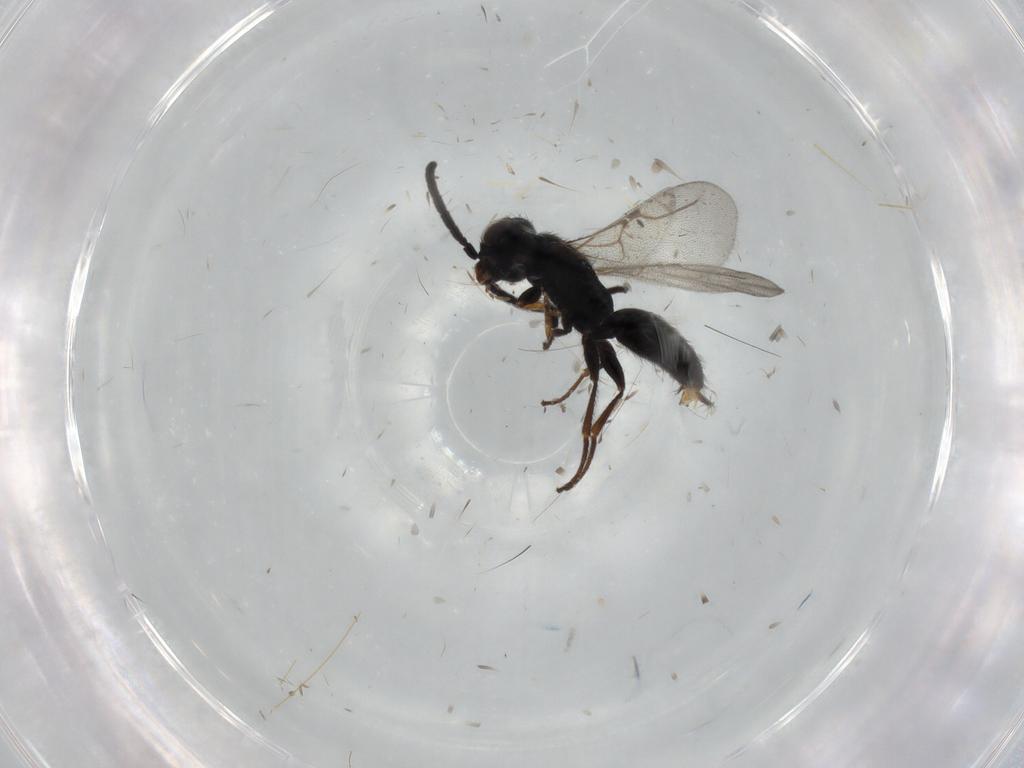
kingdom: Animalia
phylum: Arthropoda
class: Insecta
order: Hymenoptera
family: Bethylidae
